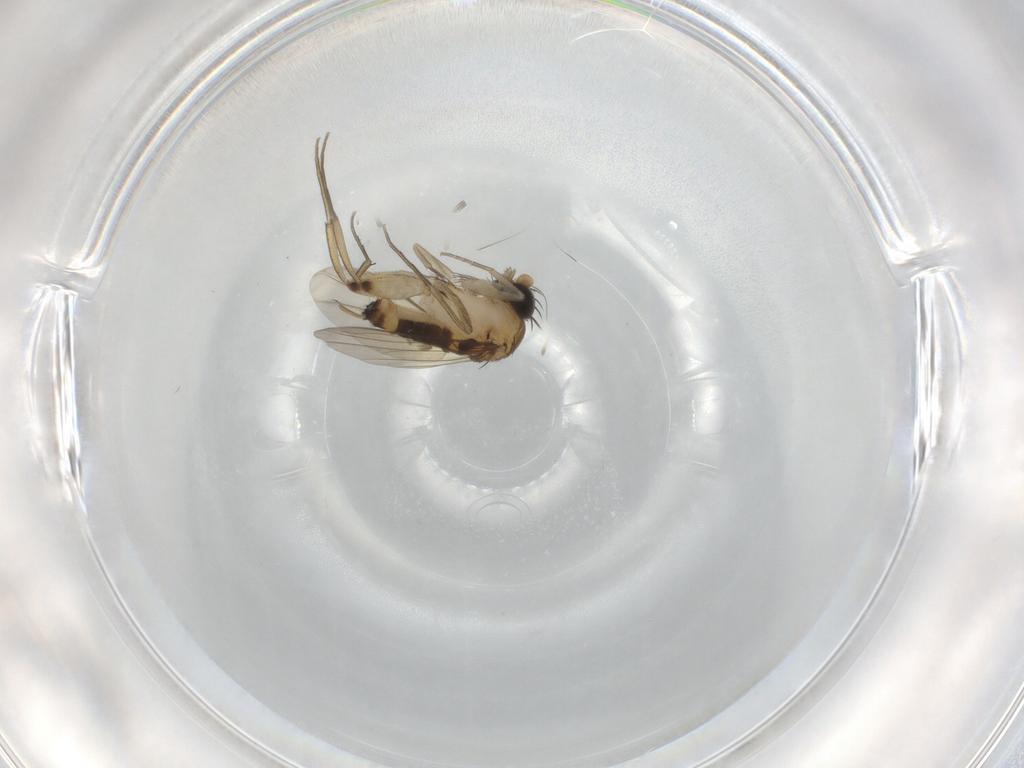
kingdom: Animalia
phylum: Arthropoda
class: Insecta
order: Diptera
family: Phoridae
